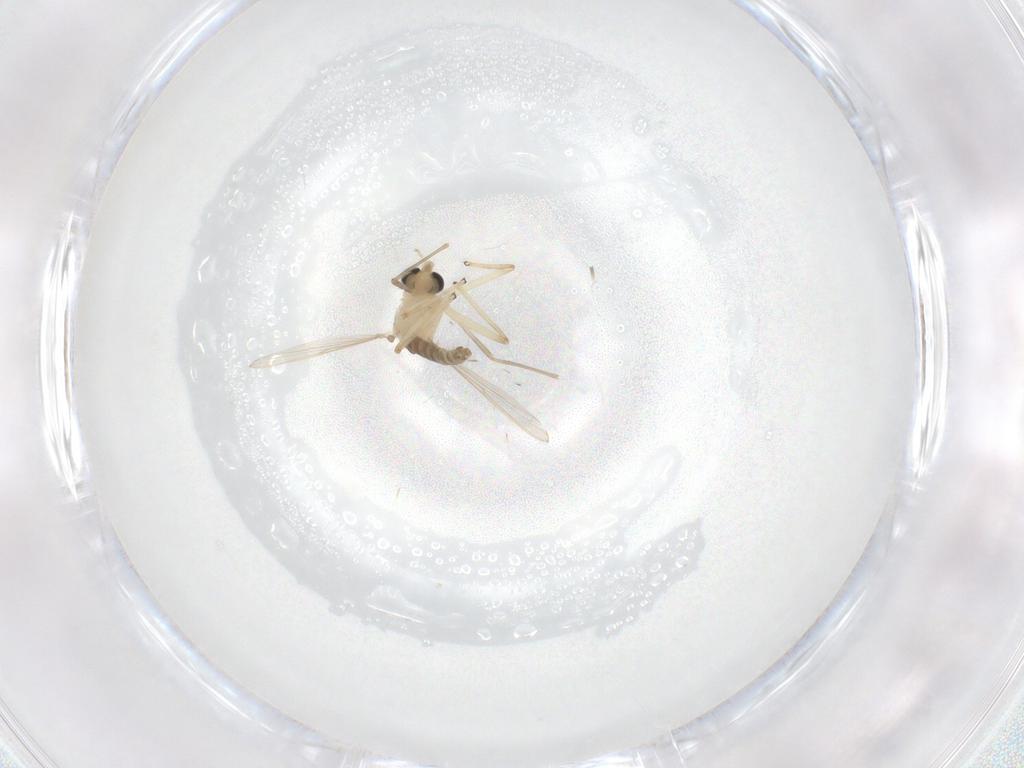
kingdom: Animalia
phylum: Arthropoda
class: Insecta
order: Diptera
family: Chironomidae
